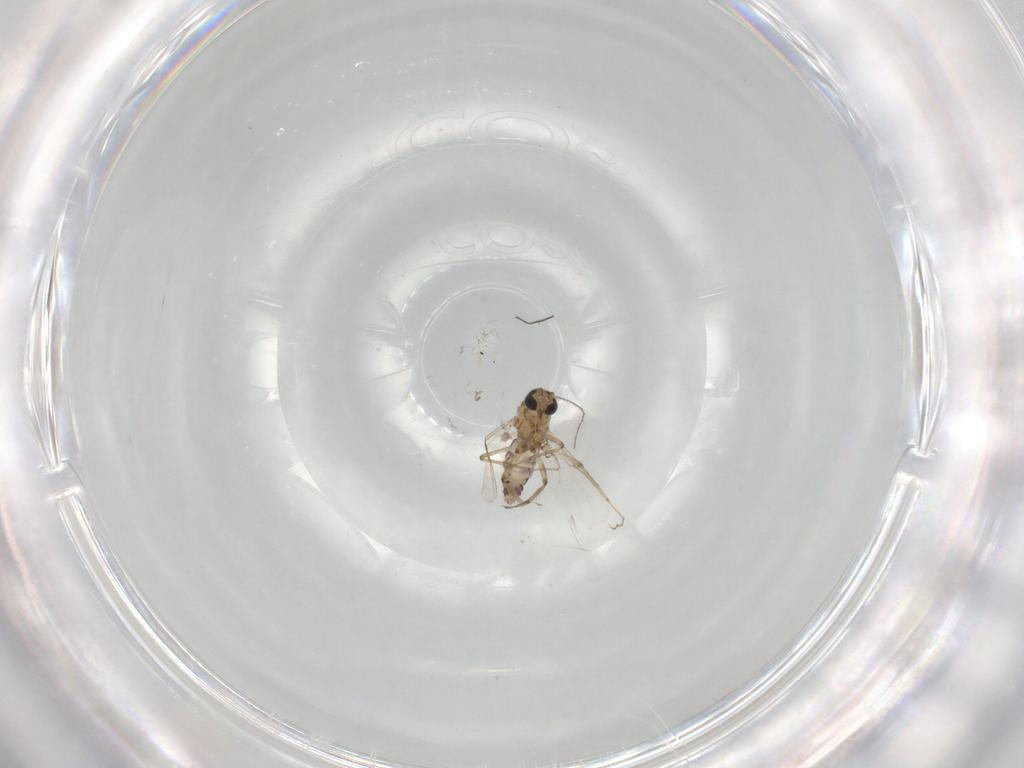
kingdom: Animalia
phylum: Arthropoda
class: Insecta
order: Diptera
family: Ceratopogonidae
